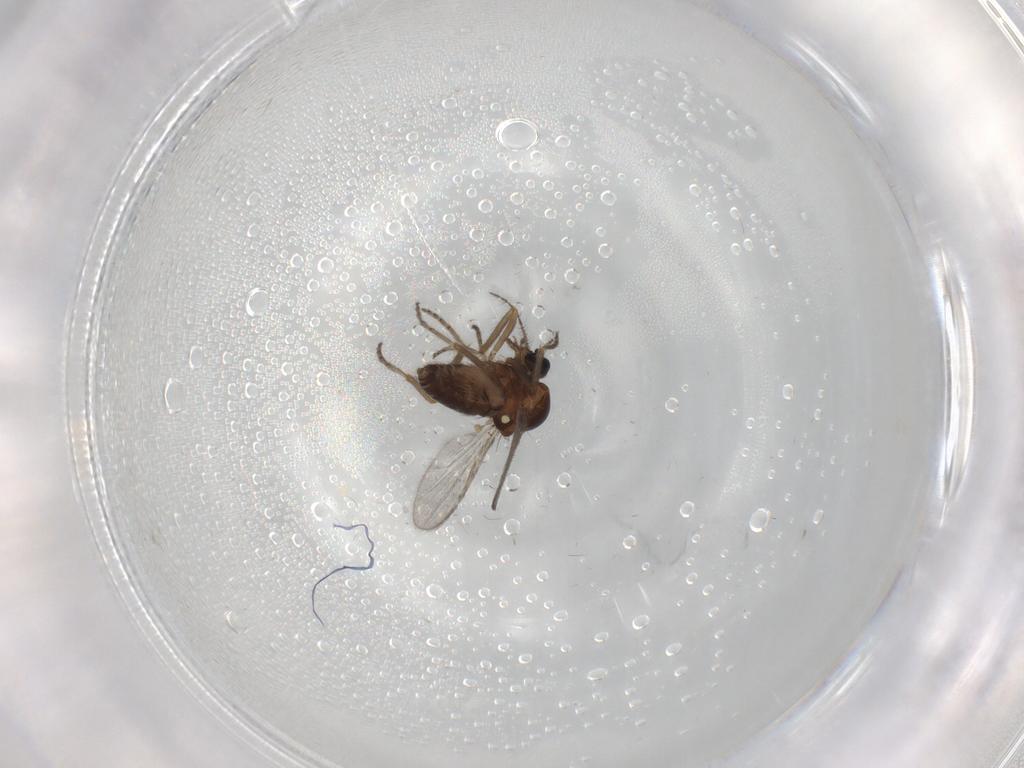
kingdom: Animalia
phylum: Arthropoda
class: Insecta
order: Diptera
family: Ceratopogonidae
